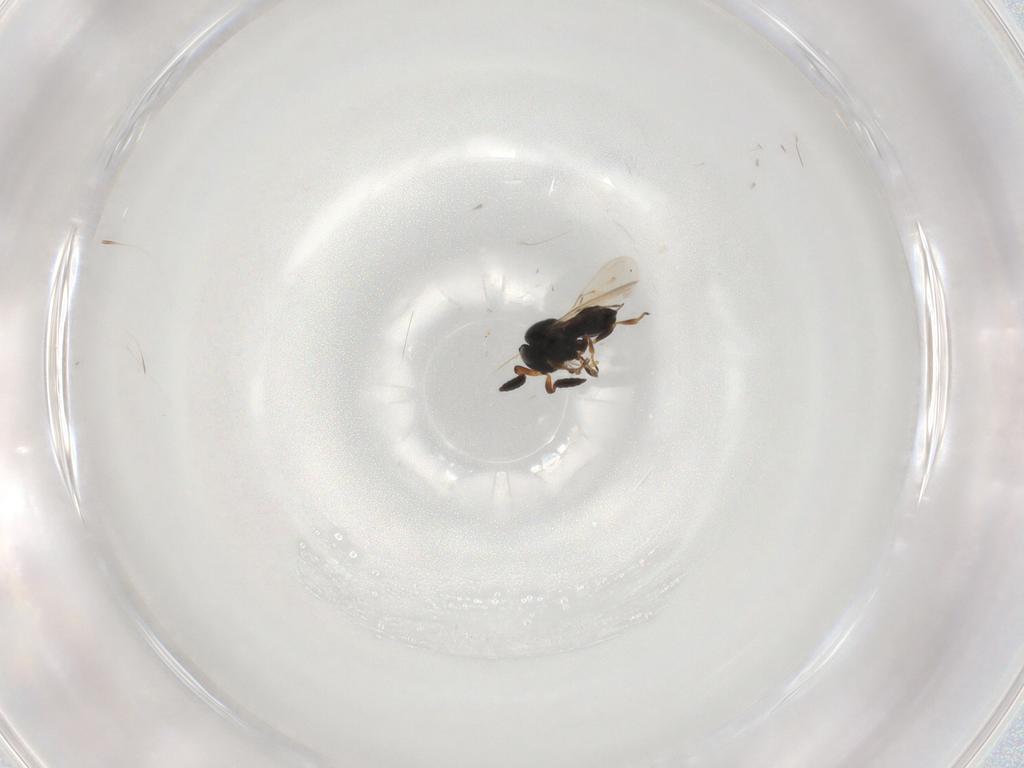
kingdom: Animalia
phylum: Arthropoda
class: Insecta
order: Hymenoptera
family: Scelionidae
